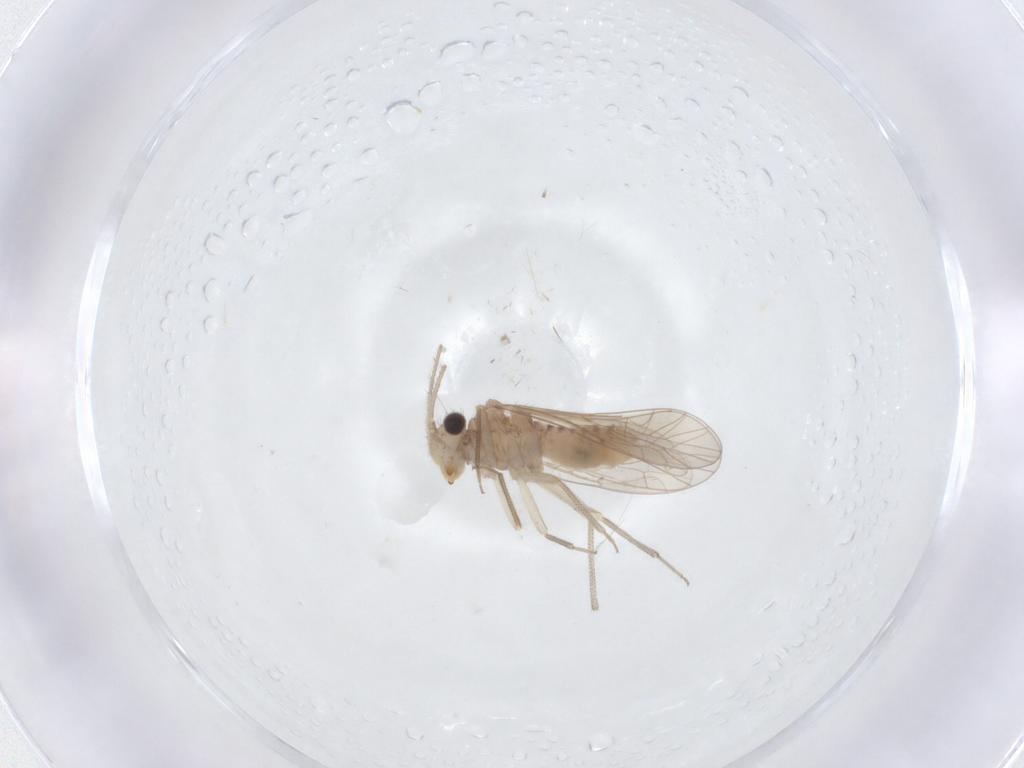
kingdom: Animalia
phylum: Arthropoda
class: Insecta
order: Psocodea
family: Caeciliusidae
